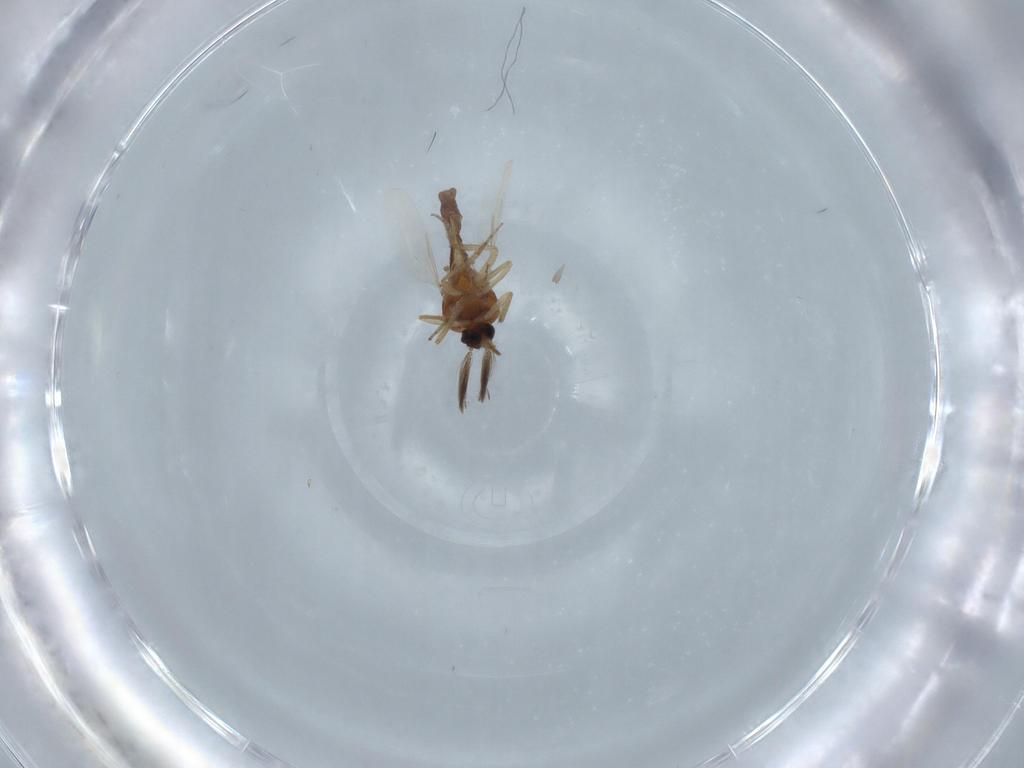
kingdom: Animalia
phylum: Arthropoda
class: Insecta
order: Diptera
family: Ceratopogonidae
